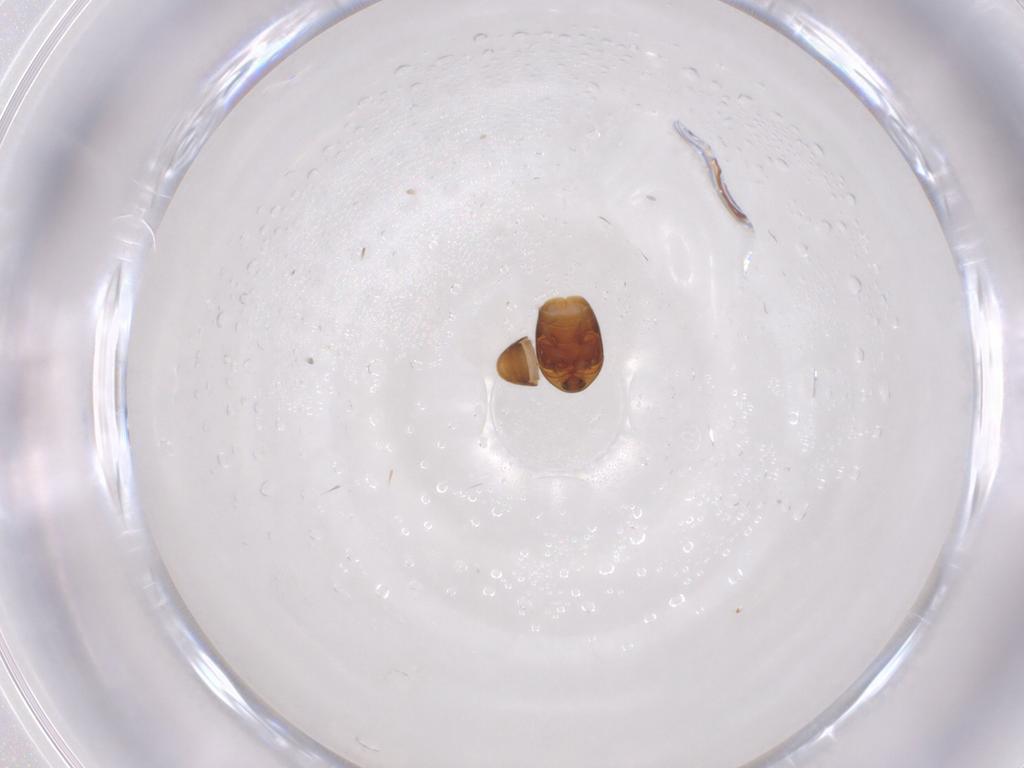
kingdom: Animalia
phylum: Arthropoda
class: Insecta
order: Coleoptera
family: Corylophidae
